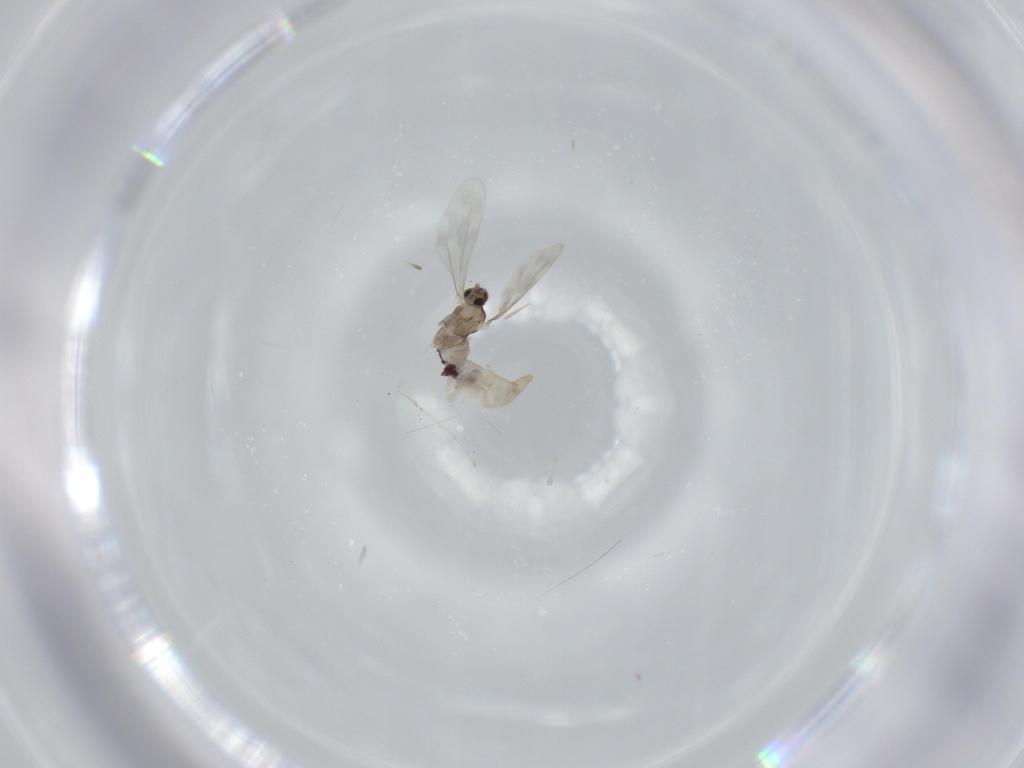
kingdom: Animalia
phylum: Arthropoda
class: Insecta
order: Diptera
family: Cecidomyiidae
